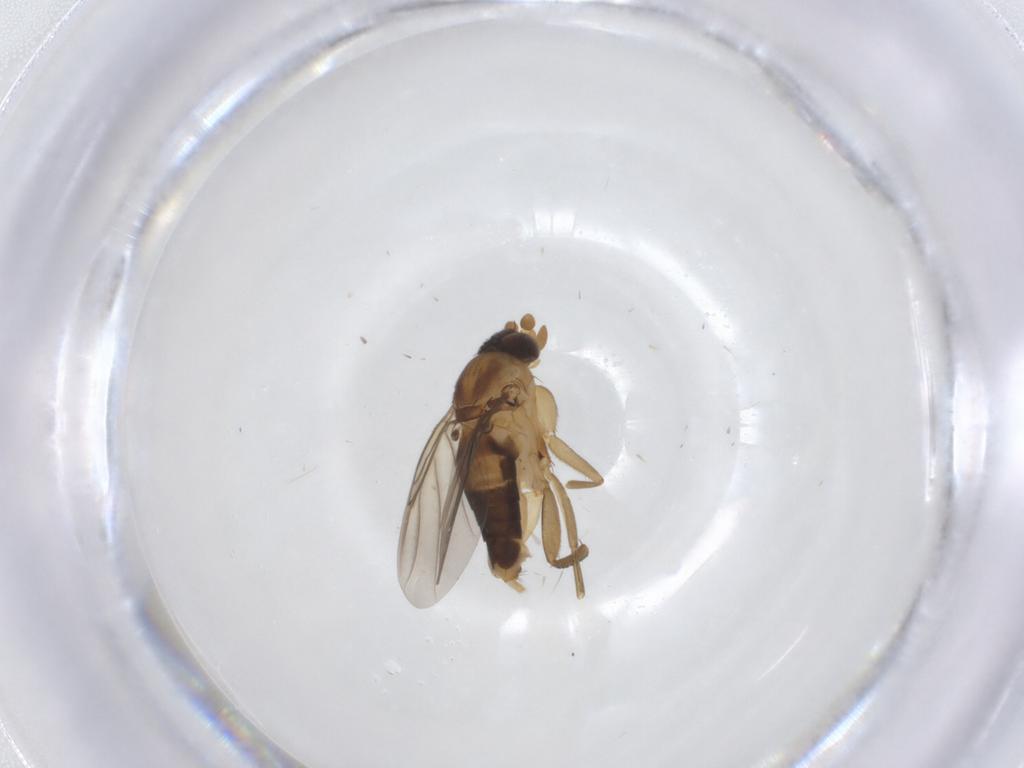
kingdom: Animalia
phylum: Arthropoda
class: Insecta
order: Diptera
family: Phoridae
